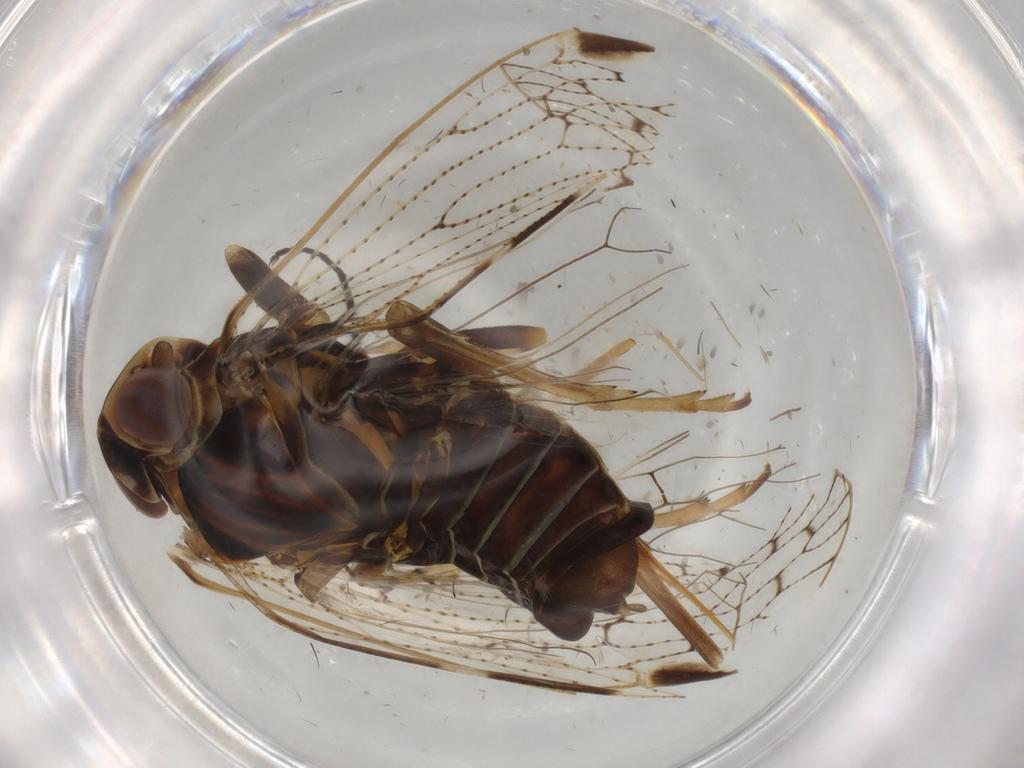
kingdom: Animalia
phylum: Arthropoda
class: Insecta
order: Hemiptera
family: Cixiidae
